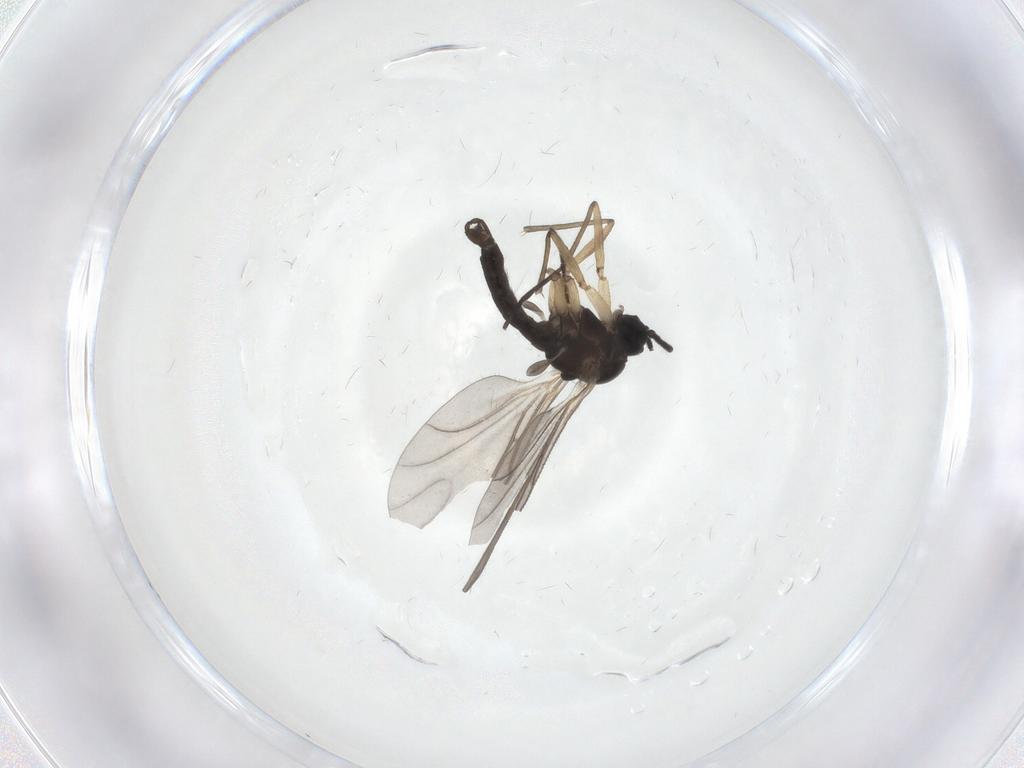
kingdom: Animalia
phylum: Arthropoda
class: Insecta
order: Diptera
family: Sciaridae
